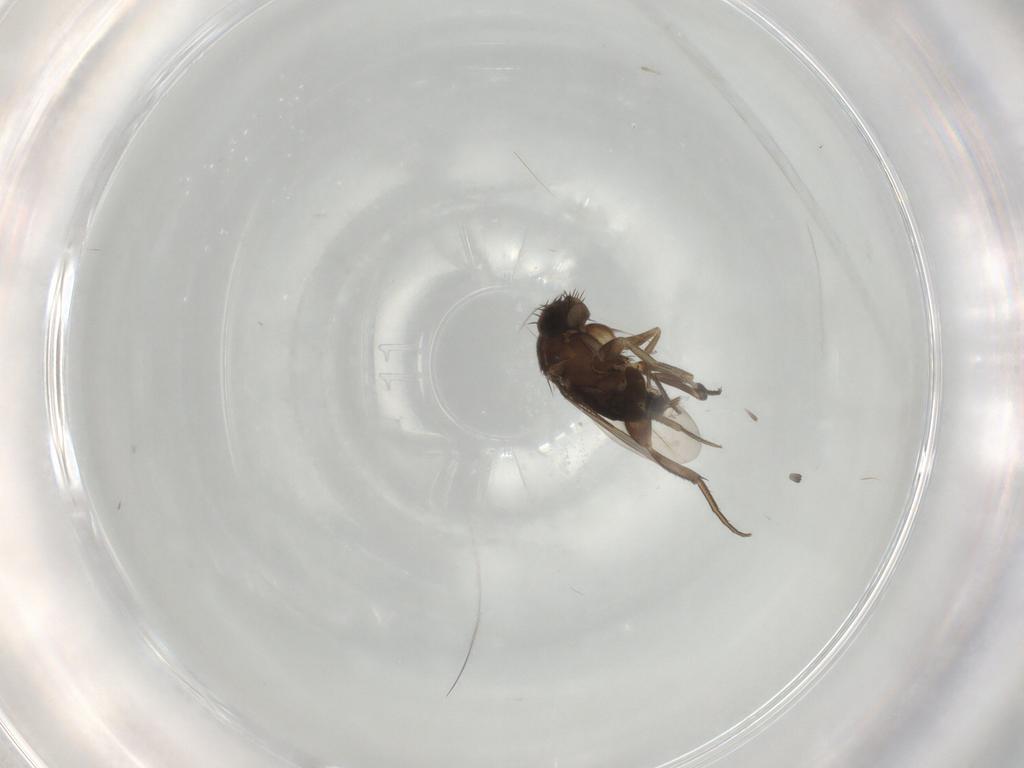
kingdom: Animalia
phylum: Arthropoda
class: Insecta
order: Diptera
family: Phoridae
